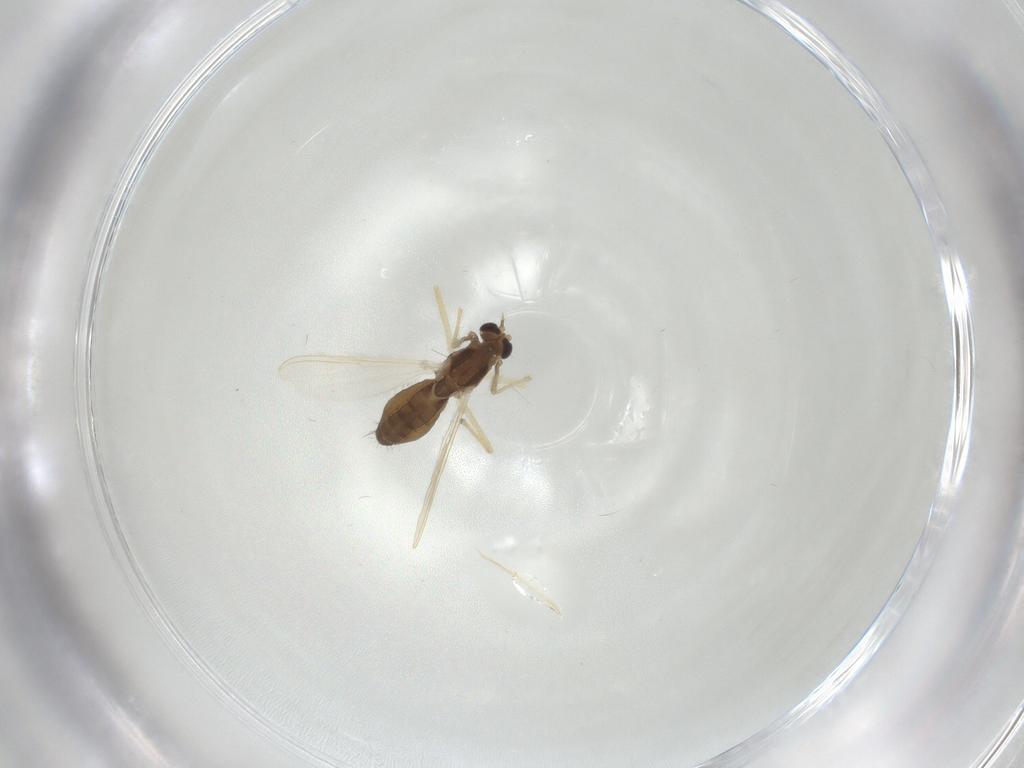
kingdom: Animalia
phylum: Arthropoda
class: Insecta
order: Diptera
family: Chironomidae
